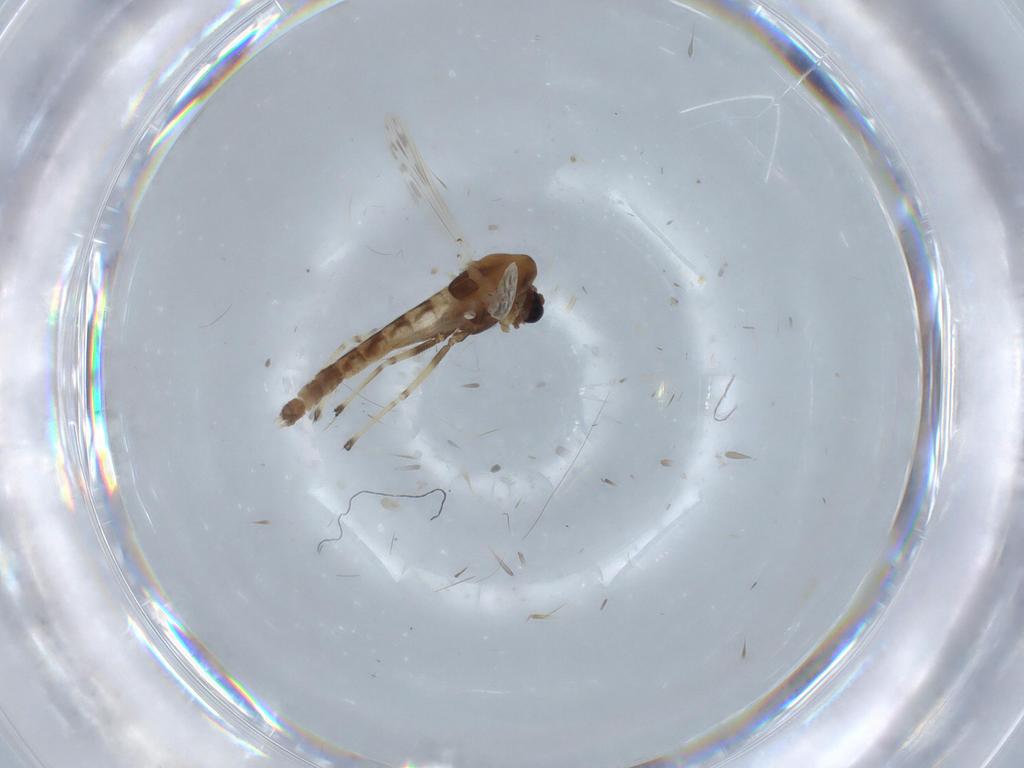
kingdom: Animalia
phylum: Arthropoda
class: Insecta
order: Diptera
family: Chironomidae
